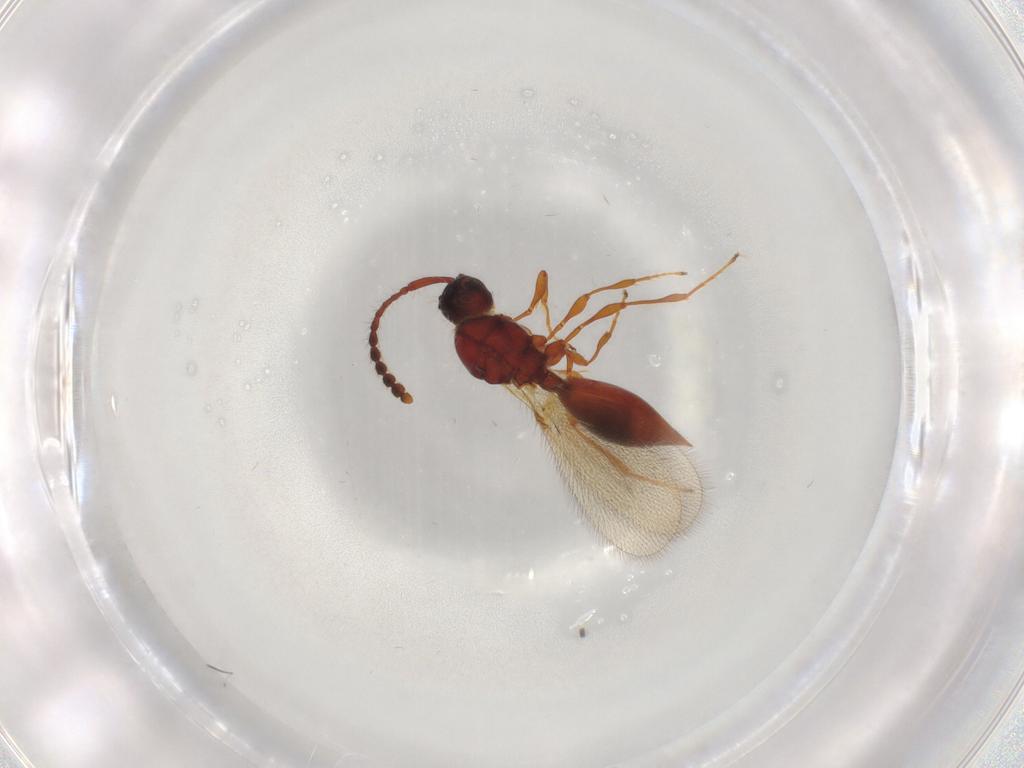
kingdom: Animalia
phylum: Arthropoda
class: Insecta
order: Hymenoptera
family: Diapriidae
